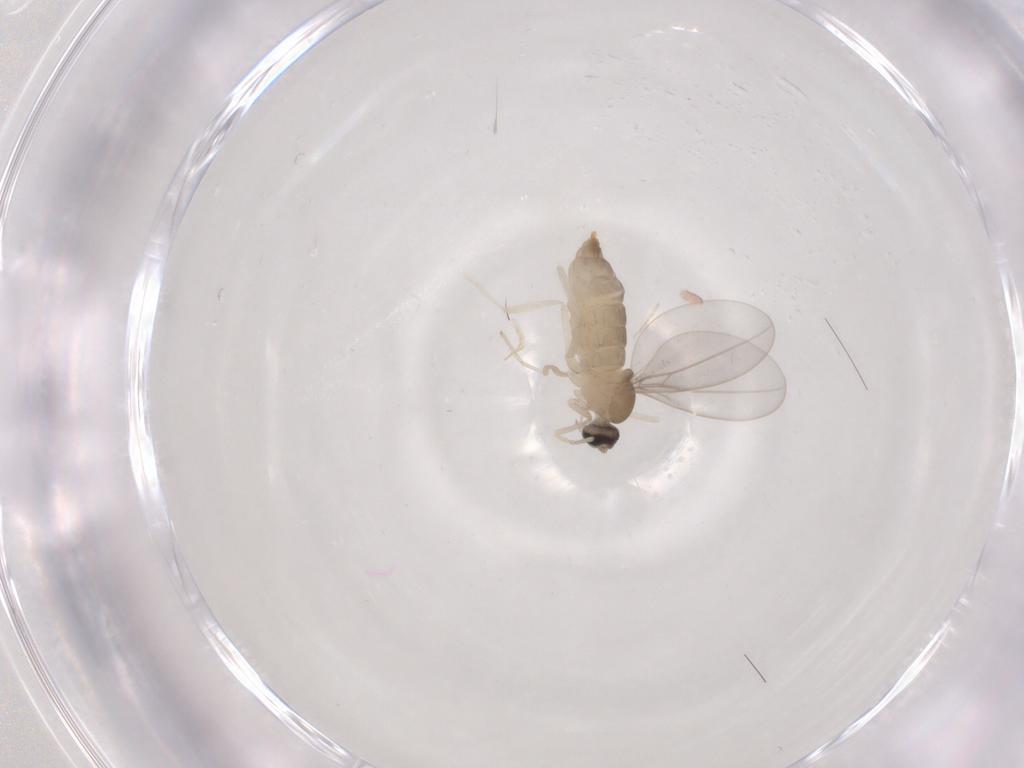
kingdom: Animalia
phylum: Arthropoda
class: Insecta
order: Diptera
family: Cecidomyiidae
